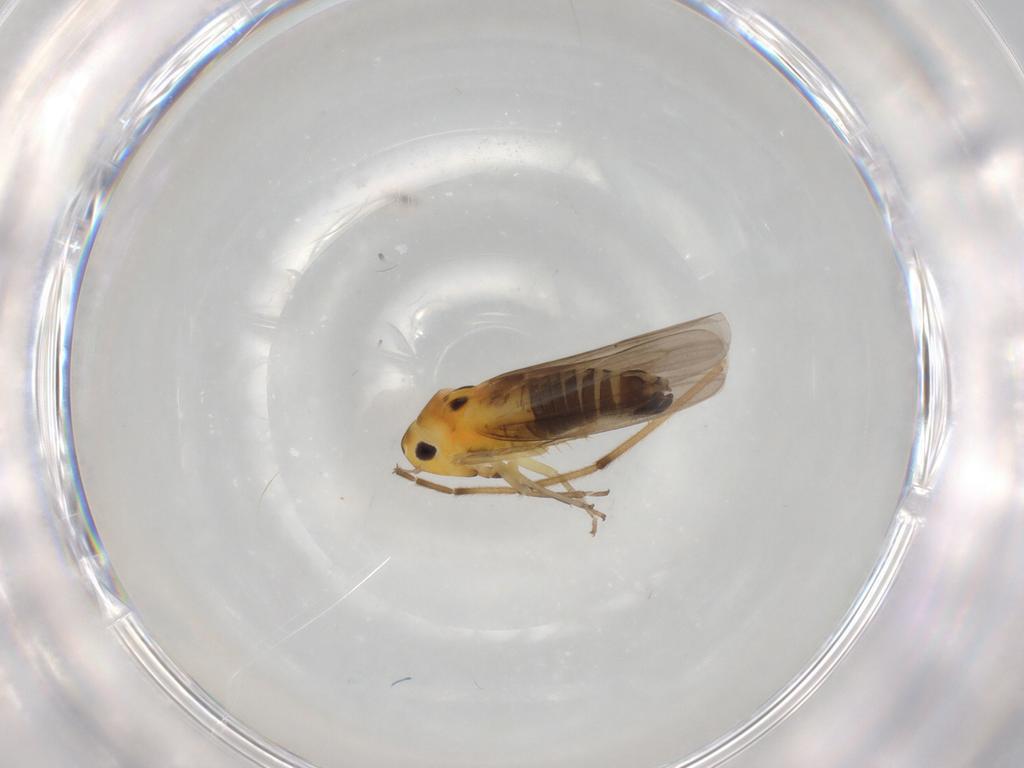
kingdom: Animalia
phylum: Arthropoda
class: Insecta
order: Hemiptera
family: Cicadellidae
